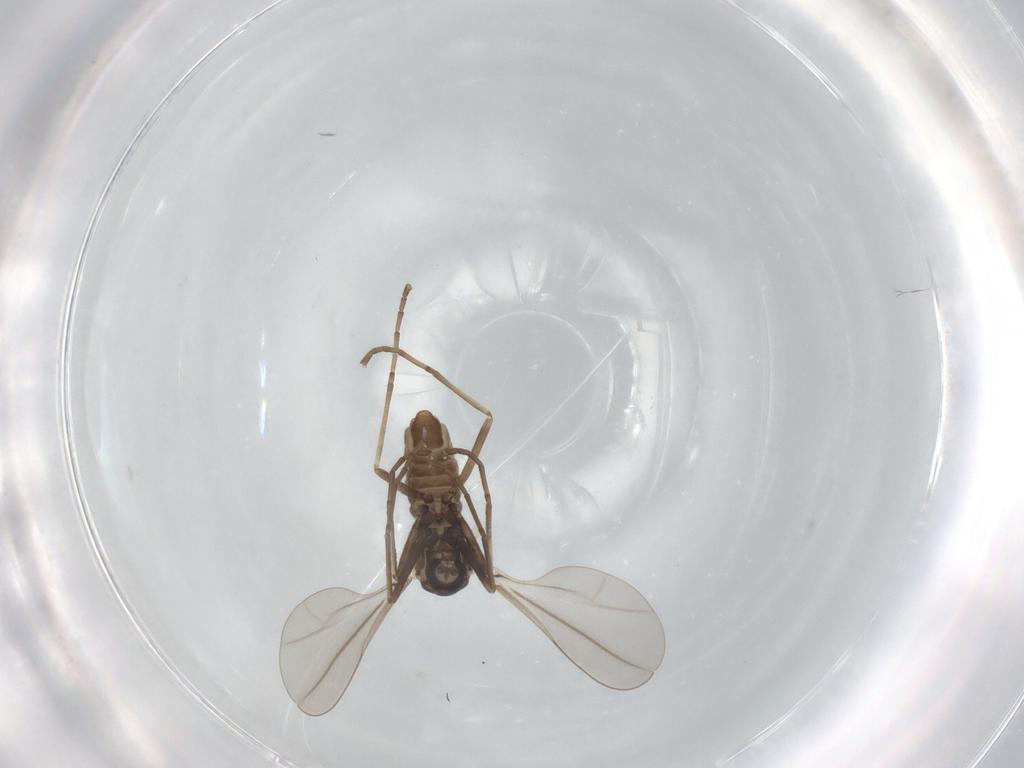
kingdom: Animalia
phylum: Arthropoda
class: Insecta
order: Diptera
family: Cecidomyiidae
